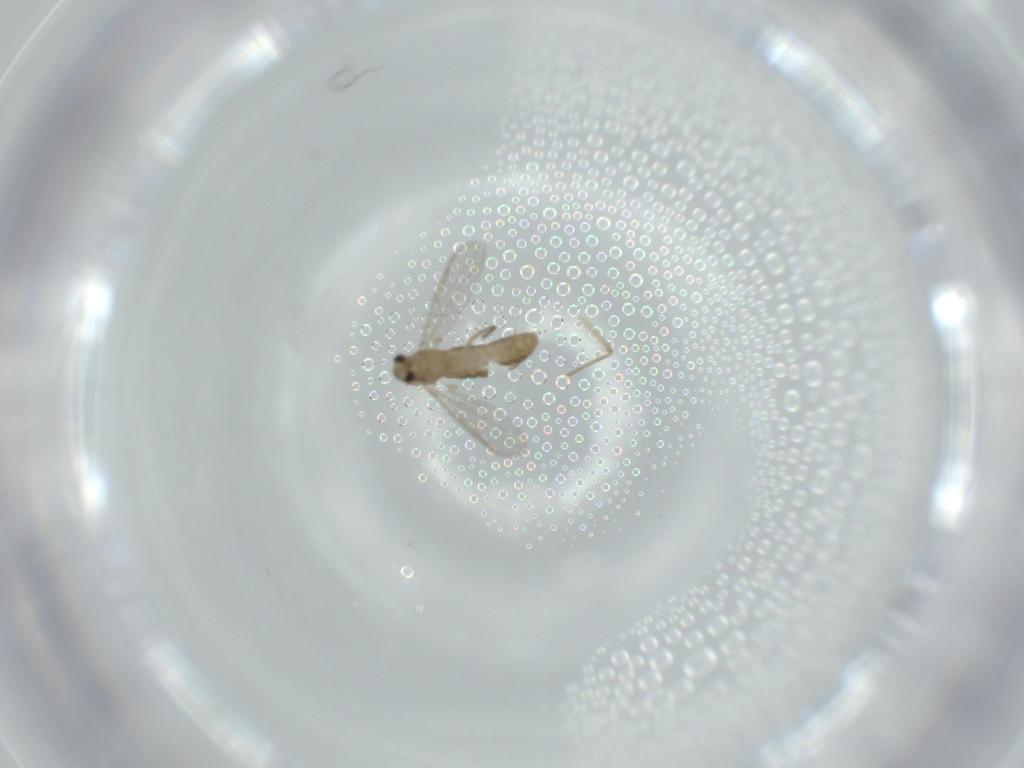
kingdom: Animalia
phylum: Arthropoda
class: Insecta
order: Diptera
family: Chironomidae
